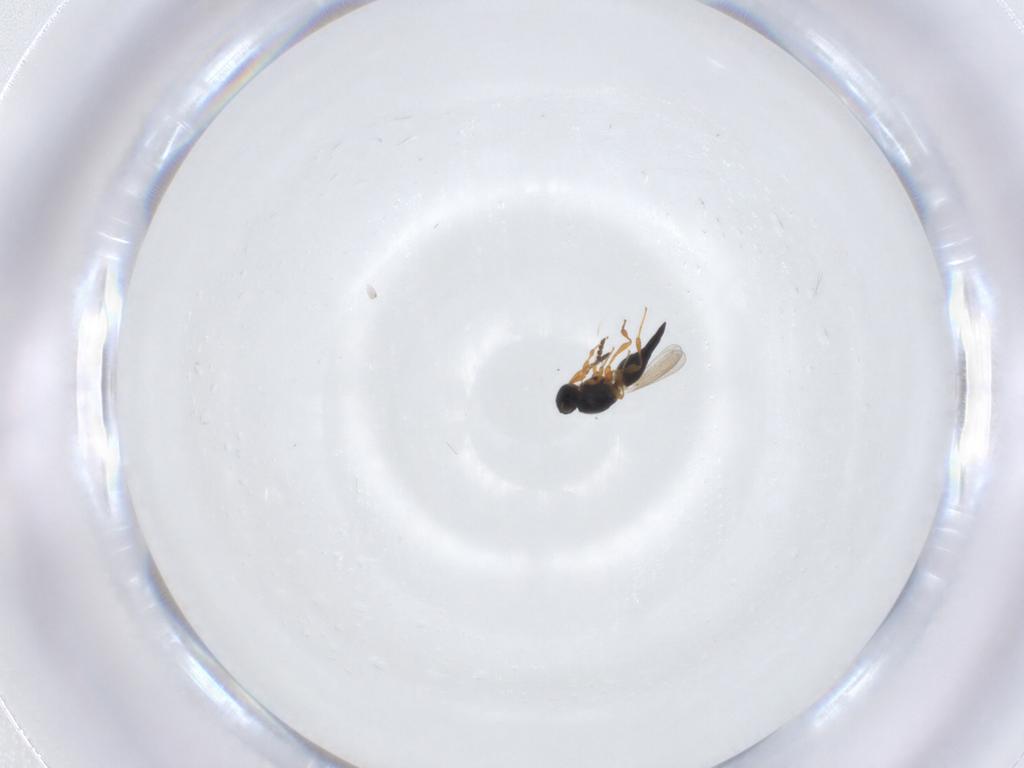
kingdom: Animalia
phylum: Arthropoda
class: Insecta
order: Hymenoptera
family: Platygastridae
